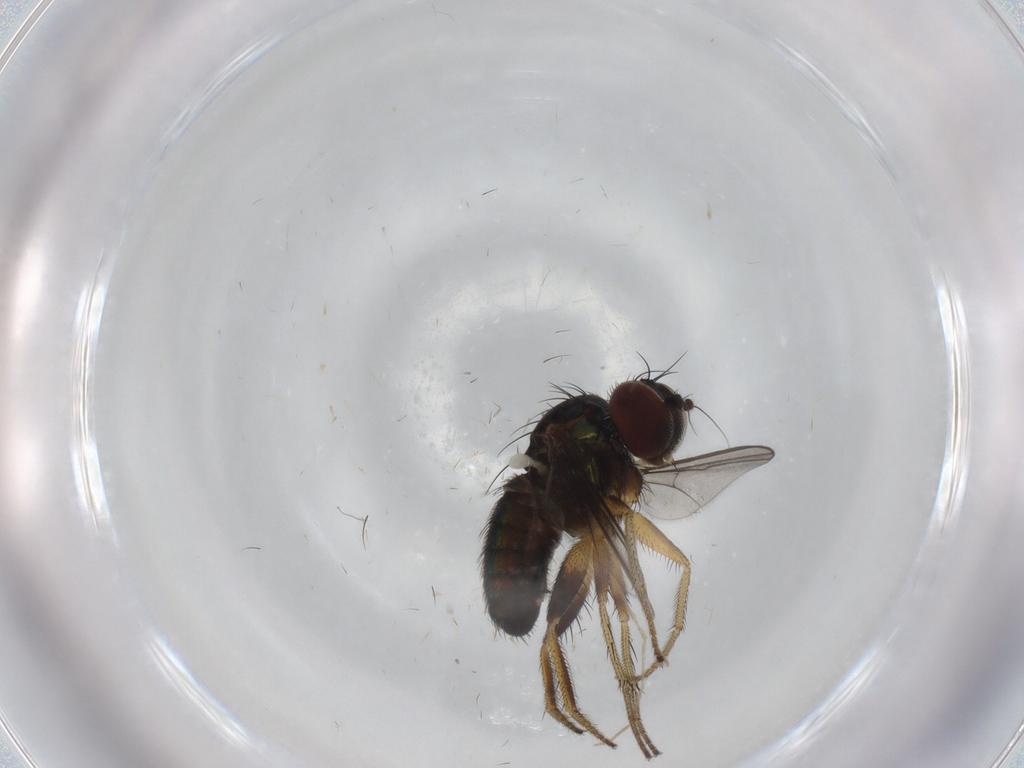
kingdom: Animalia
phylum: Arthropoda
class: Insecta
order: Diptera
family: Dolichopodidae
